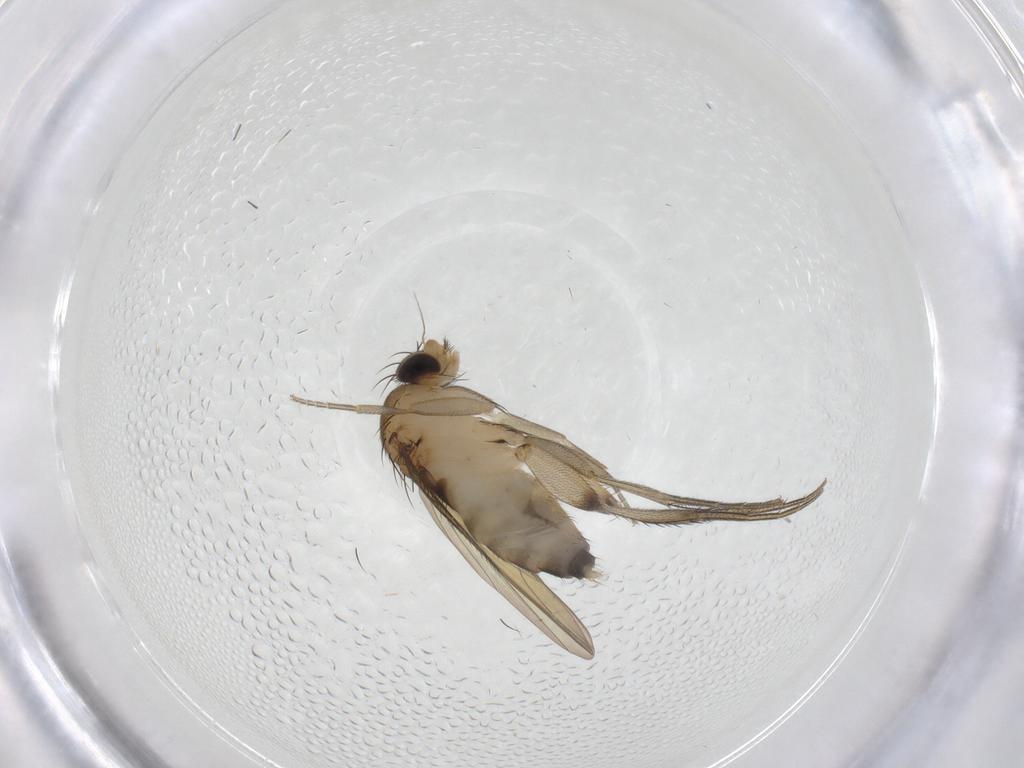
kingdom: Animalia
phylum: Arthropoda
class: Insecta
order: Diptera
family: Phoridae
